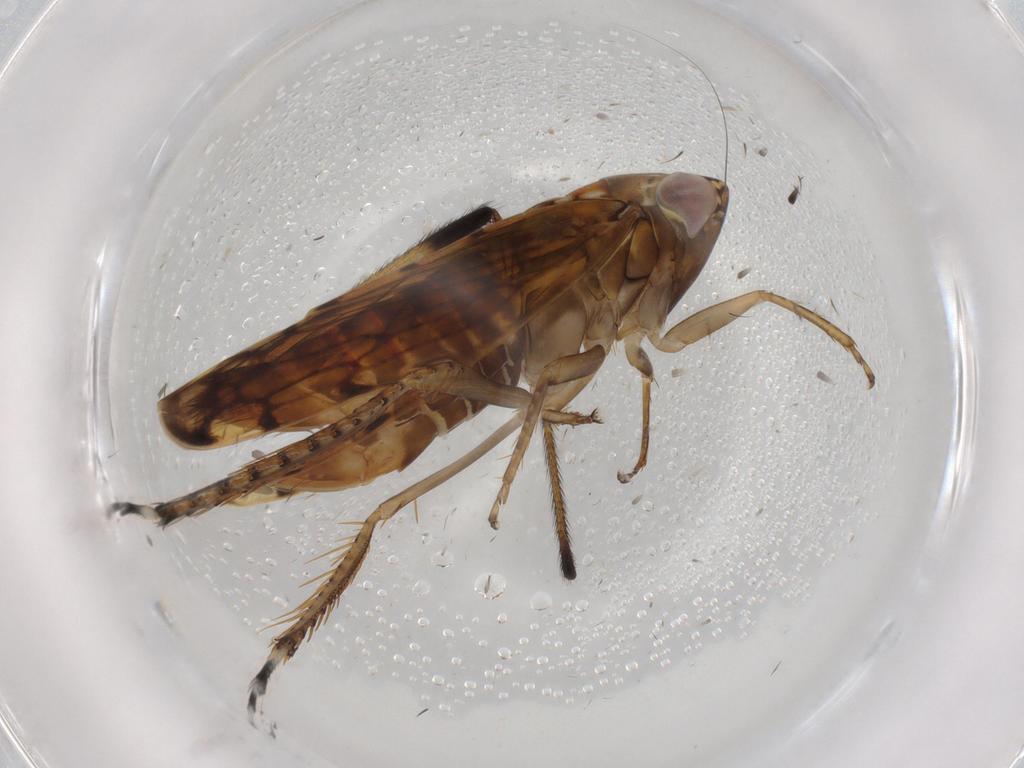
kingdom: Animalia
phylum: Arthropoda
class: Insecta
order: Hemiptera
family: Cicadellidae
